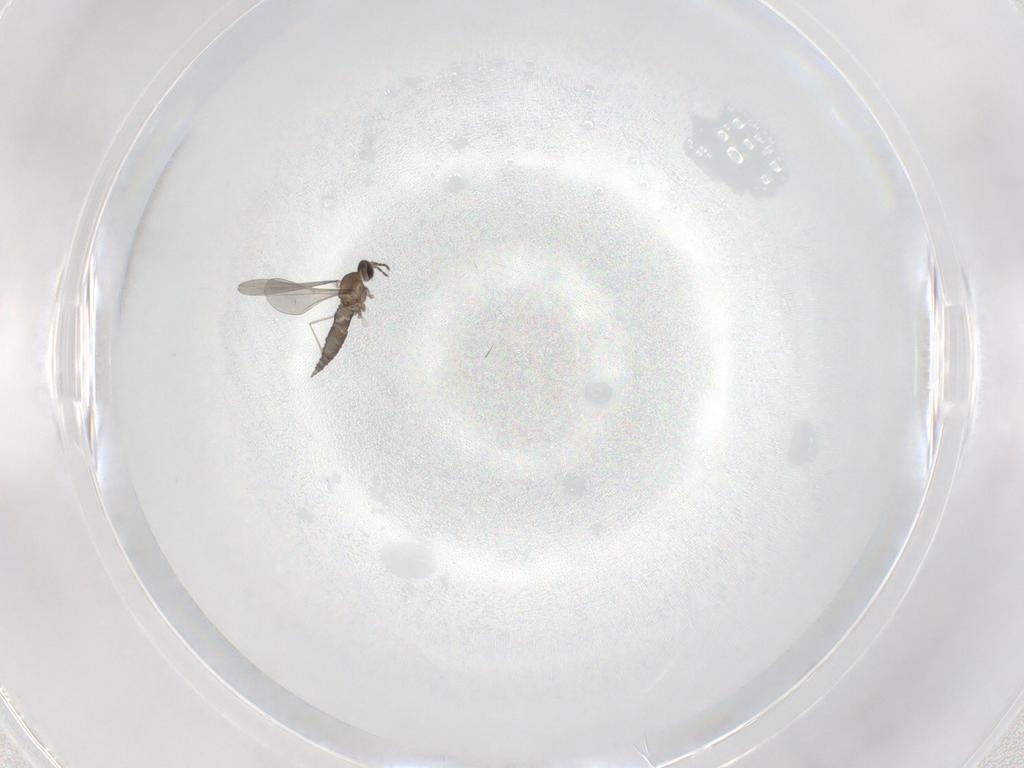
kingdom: Animalia
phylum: Arthropoda
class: Insecta
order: Diptera
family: Cecidomyiidae
